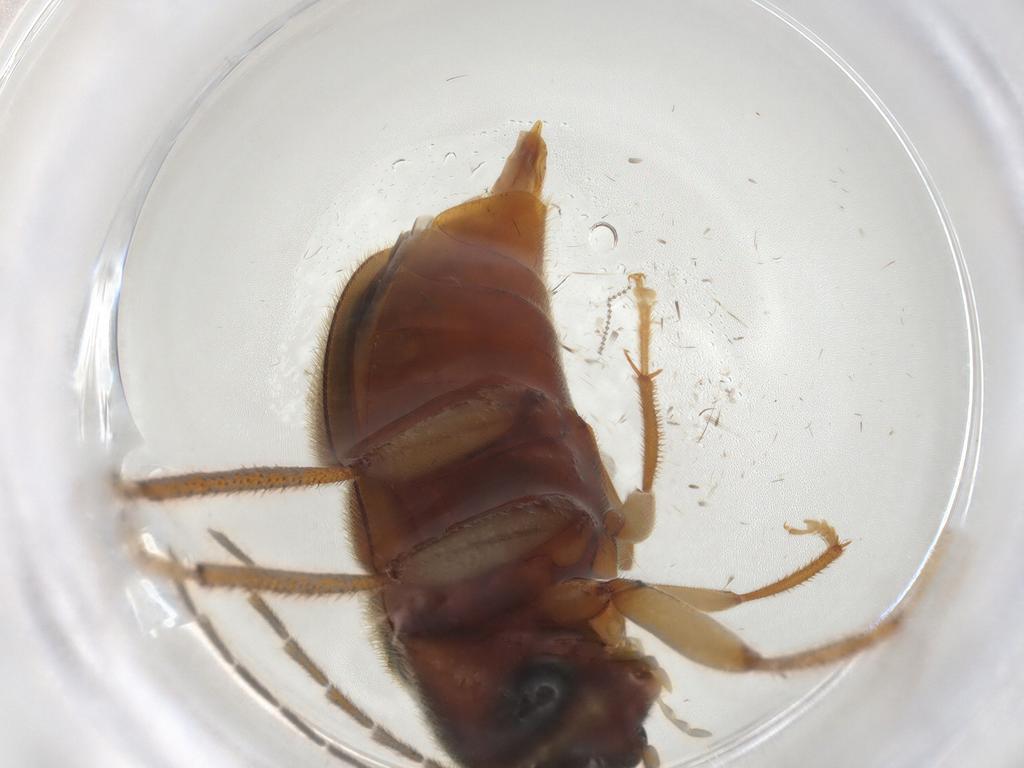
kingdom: Animalia
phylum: Arthropoda
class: Insecta
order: Coleoptera
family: Ptilodactylidae
